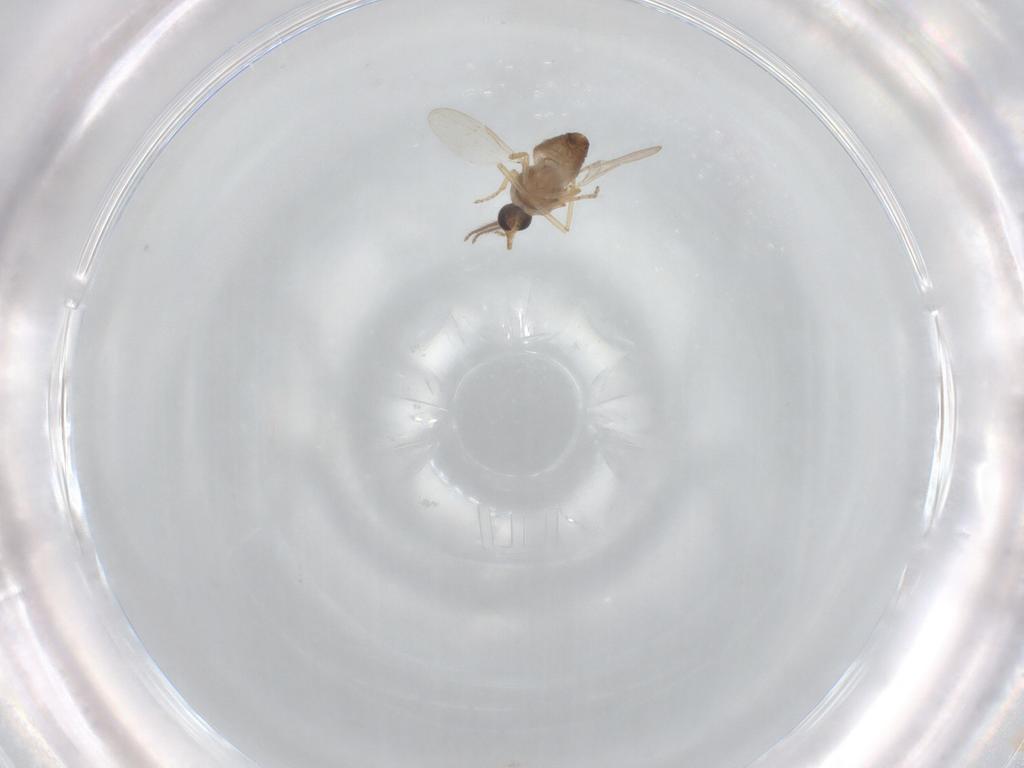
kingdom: Animalia
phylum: Arthropoda
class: Insecta
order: Diptera
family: Ceratopogonidae
